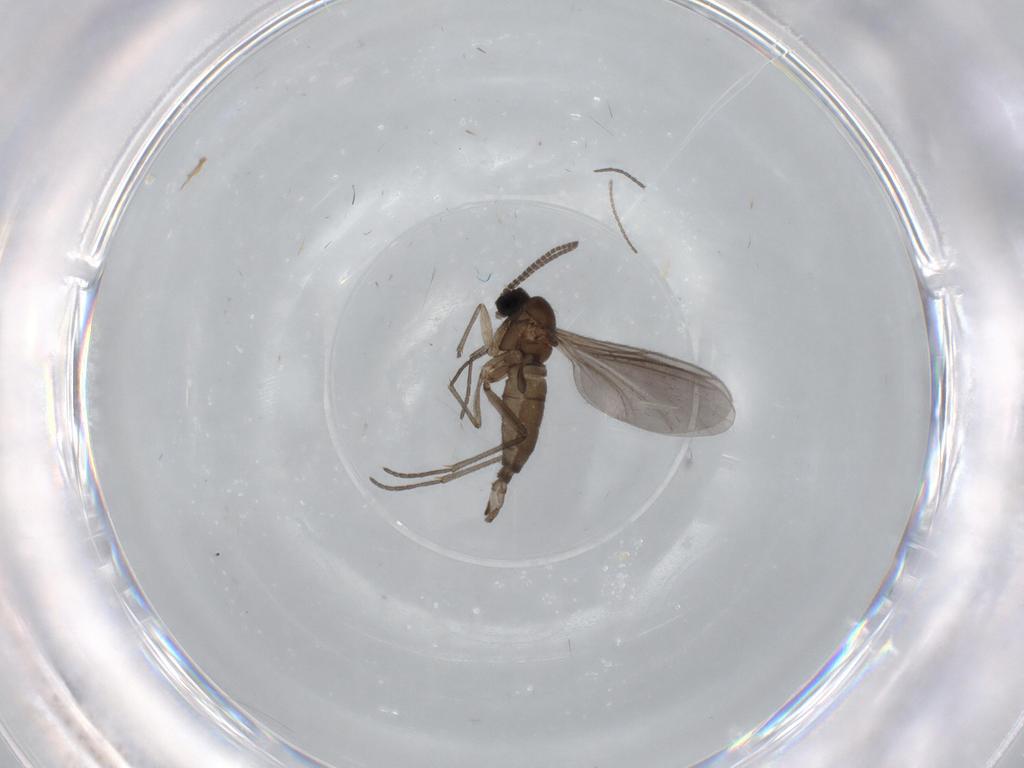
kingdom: Animalia
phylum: Arthropoda
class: Insecta
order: Diptera
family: Sciaridae
